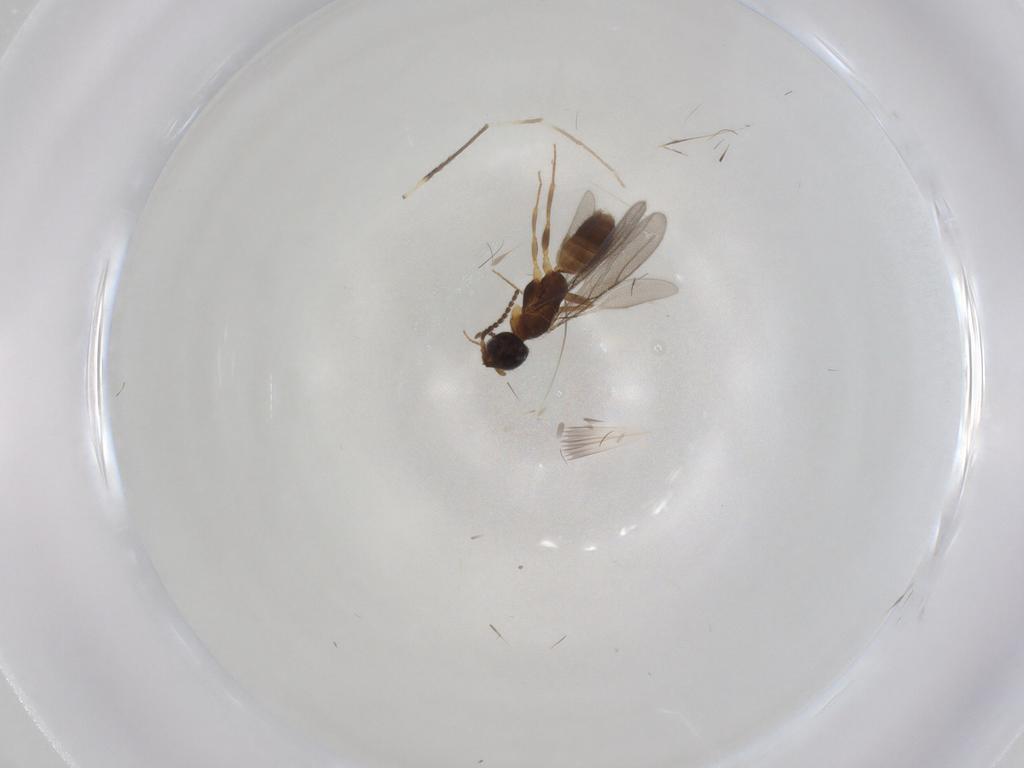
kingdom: Animalia
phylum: Arthropoda
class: Insecta
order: Hymenoptera
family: Bethylidae
